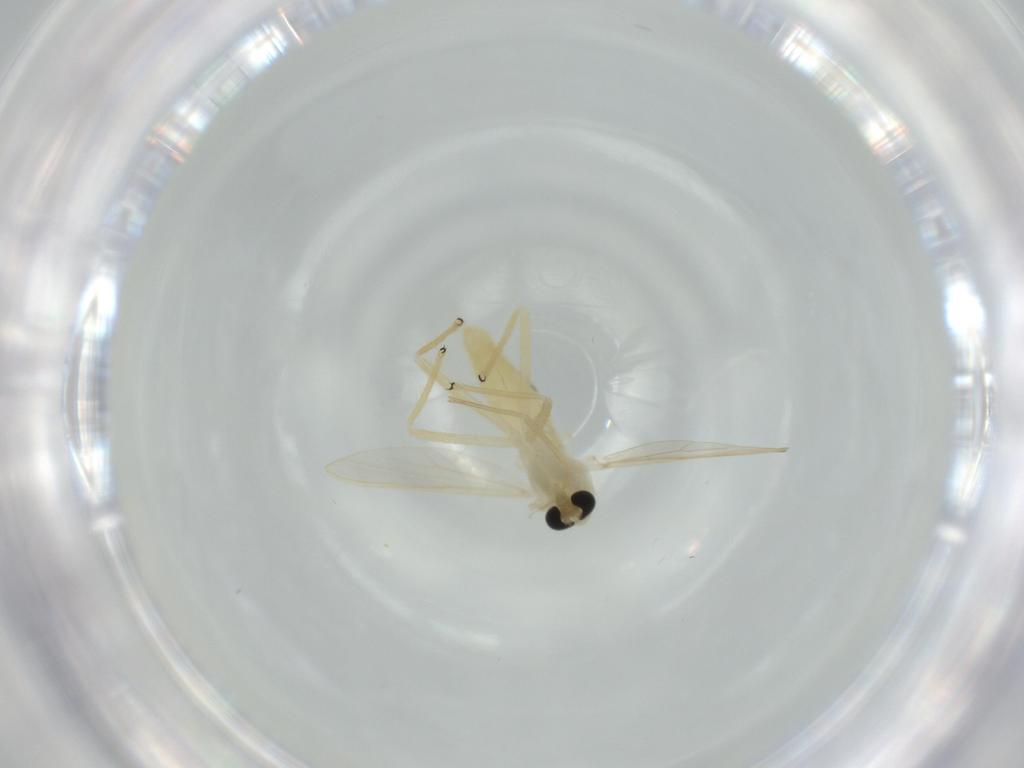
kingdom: Animalia
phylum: Arthropoda
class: Insecta
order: Diptera
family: Chironomidae
